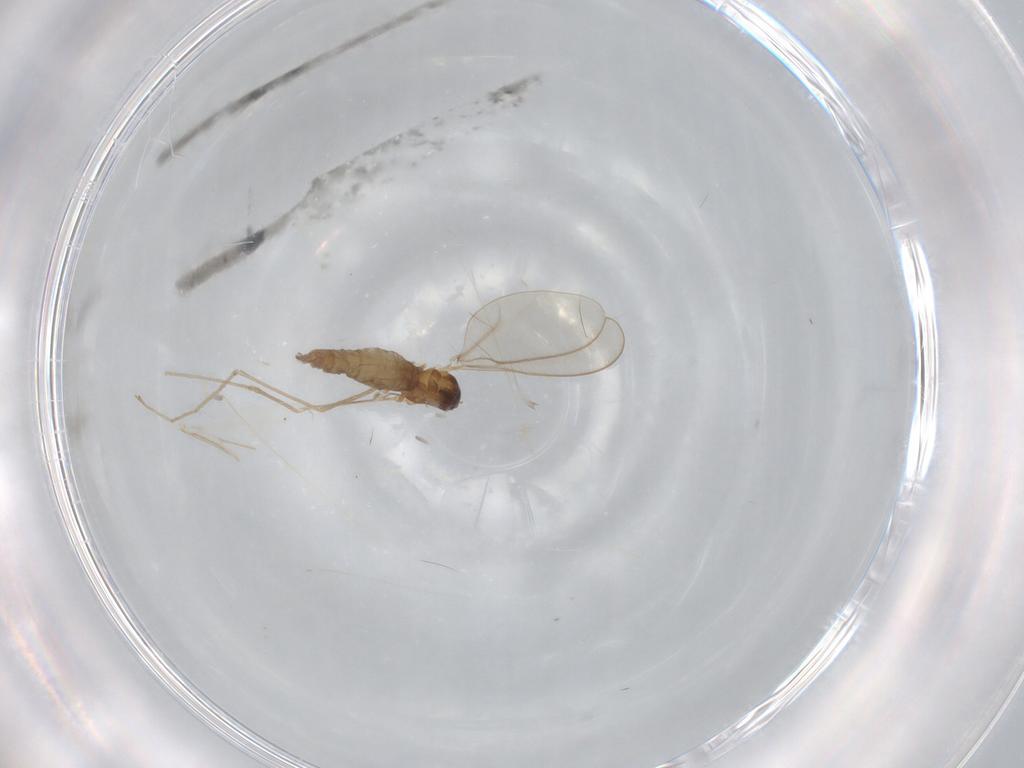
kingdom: Animalia
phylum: Arthropoda
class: Insecta
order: Diptera
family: Cecidomyiidae
